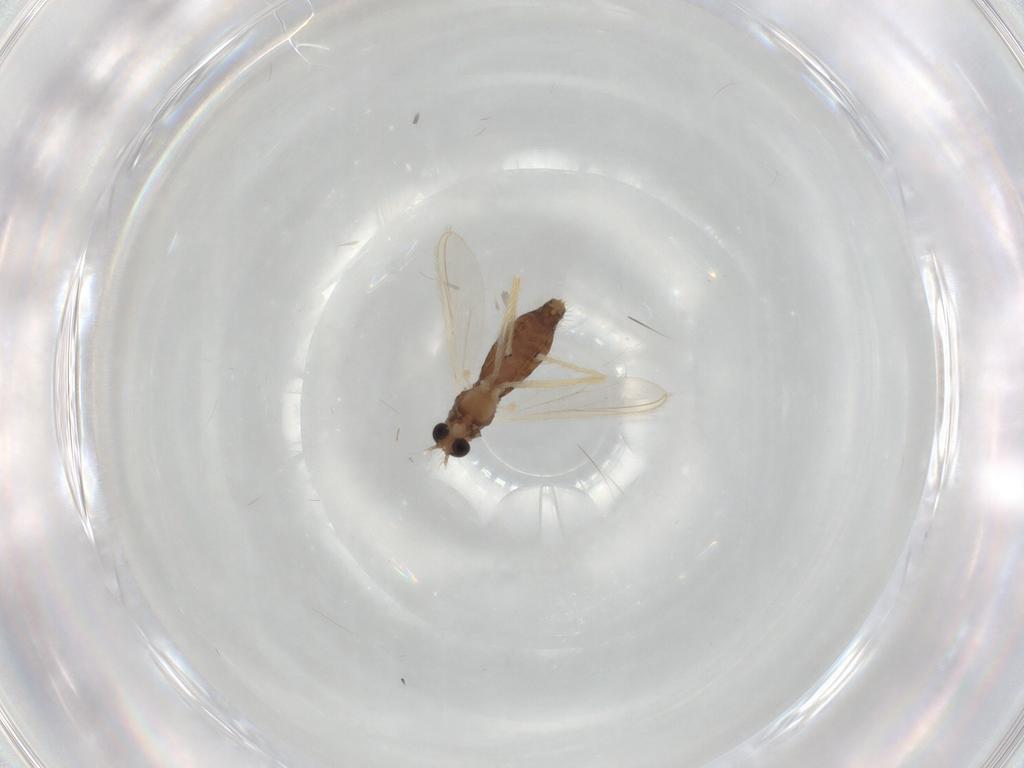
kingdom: Animalia
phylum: Arthropoda
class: Insecta
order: Diptera
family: Chironomidae
